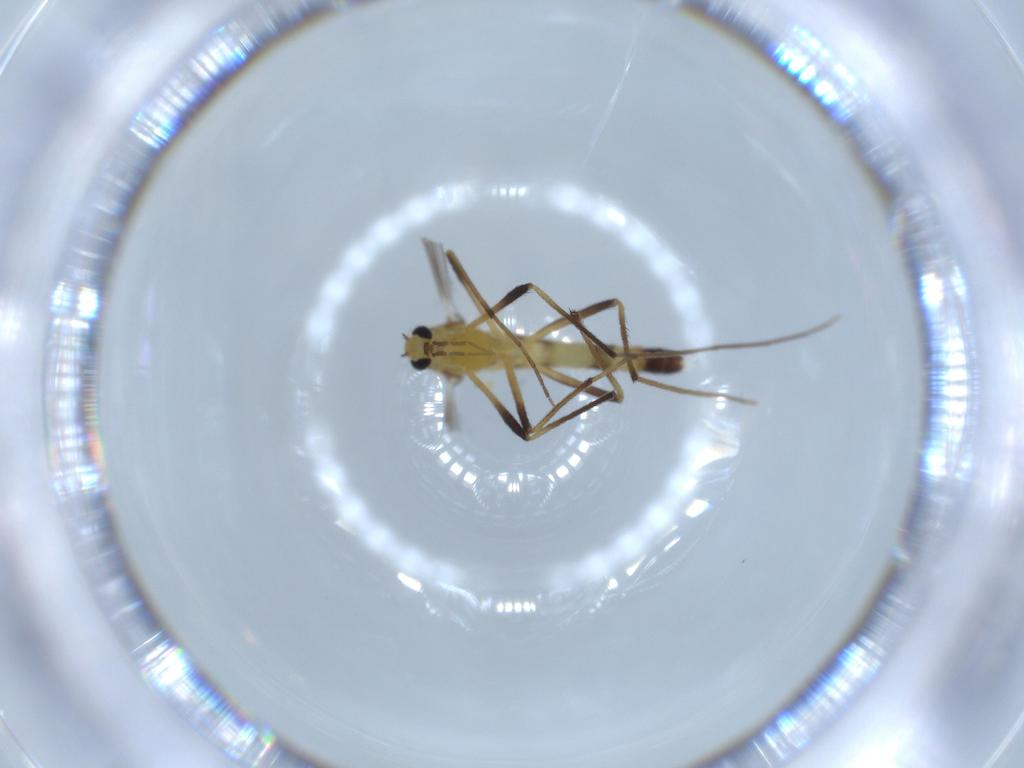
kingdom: Animalia
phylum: Arthropoda
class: Insecta
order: Diptera
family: Chironomidae
